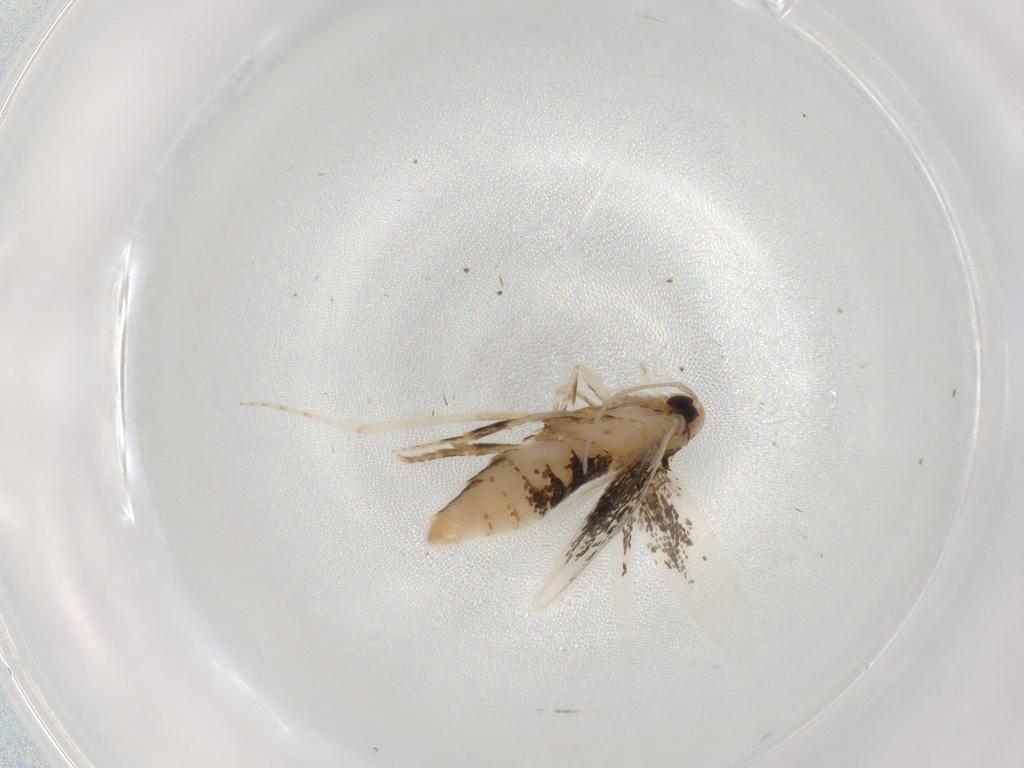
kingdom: Animalia
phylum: Arthropoda
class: Insecta
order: Lepidoptera
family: Cosmopterigidae
